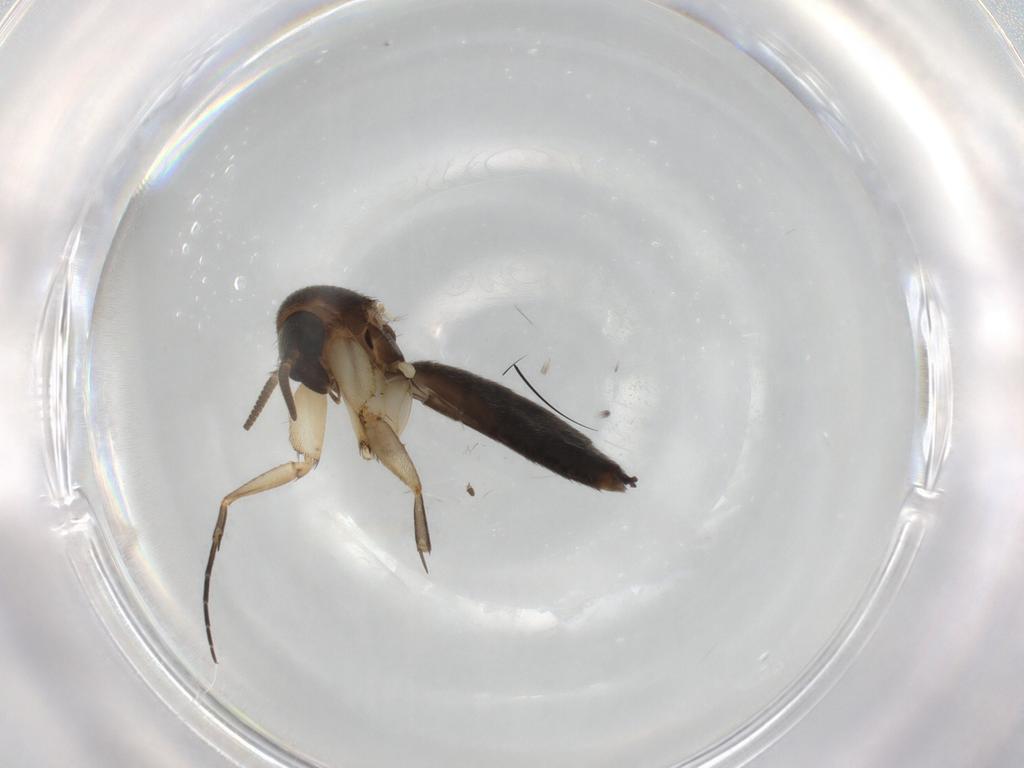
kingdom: Animalia
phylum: Arthropoda
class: Insecta
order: Diptera
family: Mycetophilidae
